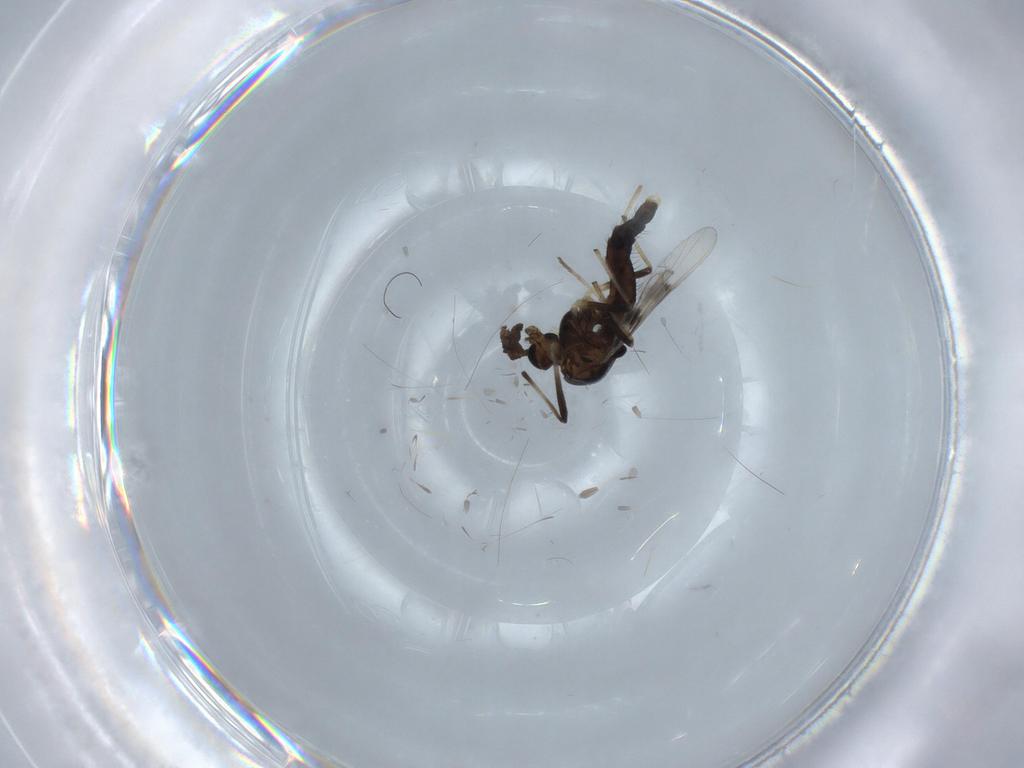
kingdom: Animalia
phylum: Arthropoda
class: Insecta
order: Diptera
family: Chironomidae
